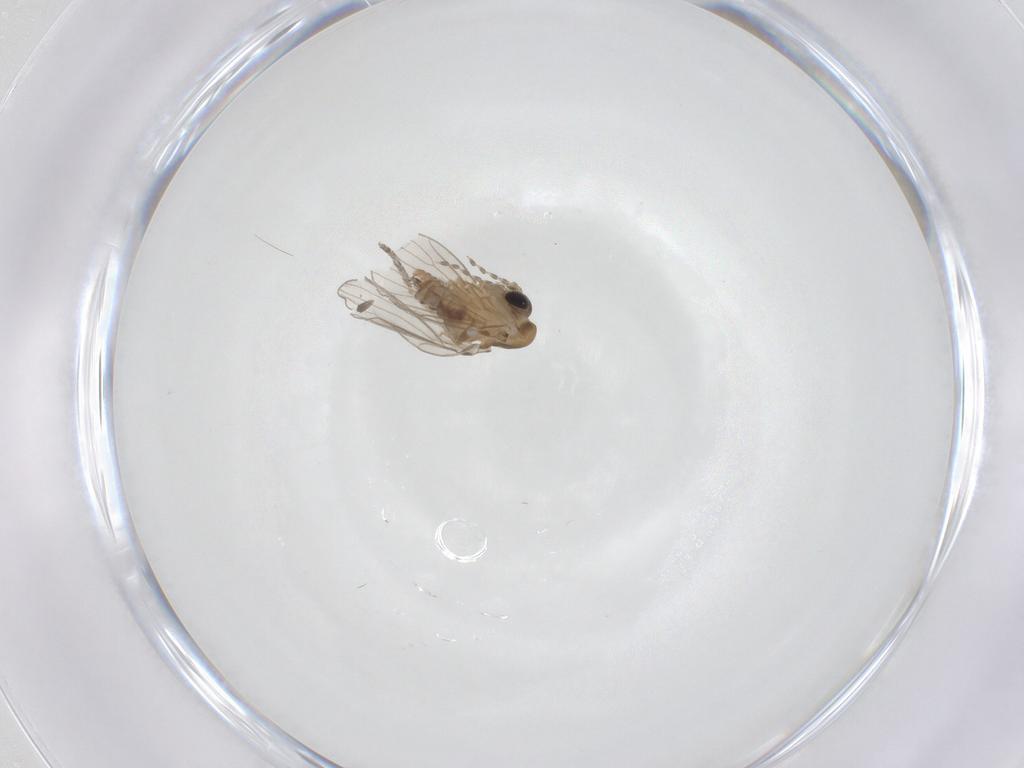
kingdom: Animalia
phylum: Arthropoda
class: Insecta
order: Diptera
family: Psychodidae
